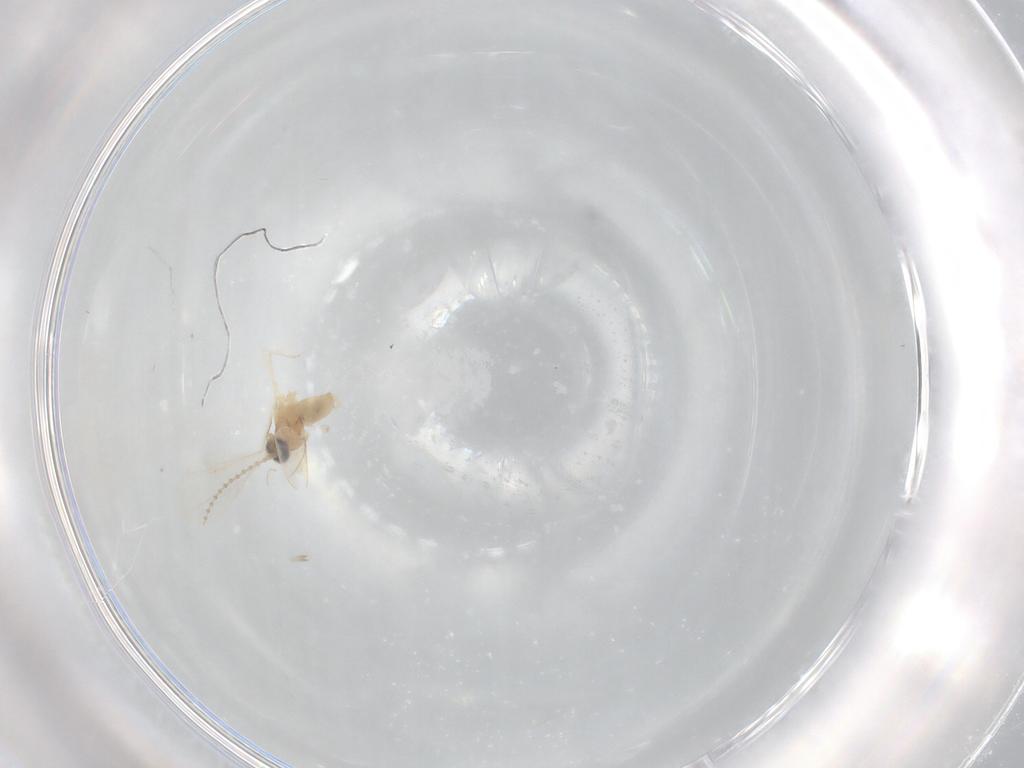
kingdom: Animalia
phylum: Arthropoda
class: Insecta
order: Diptera
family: Cecidomyiidae
